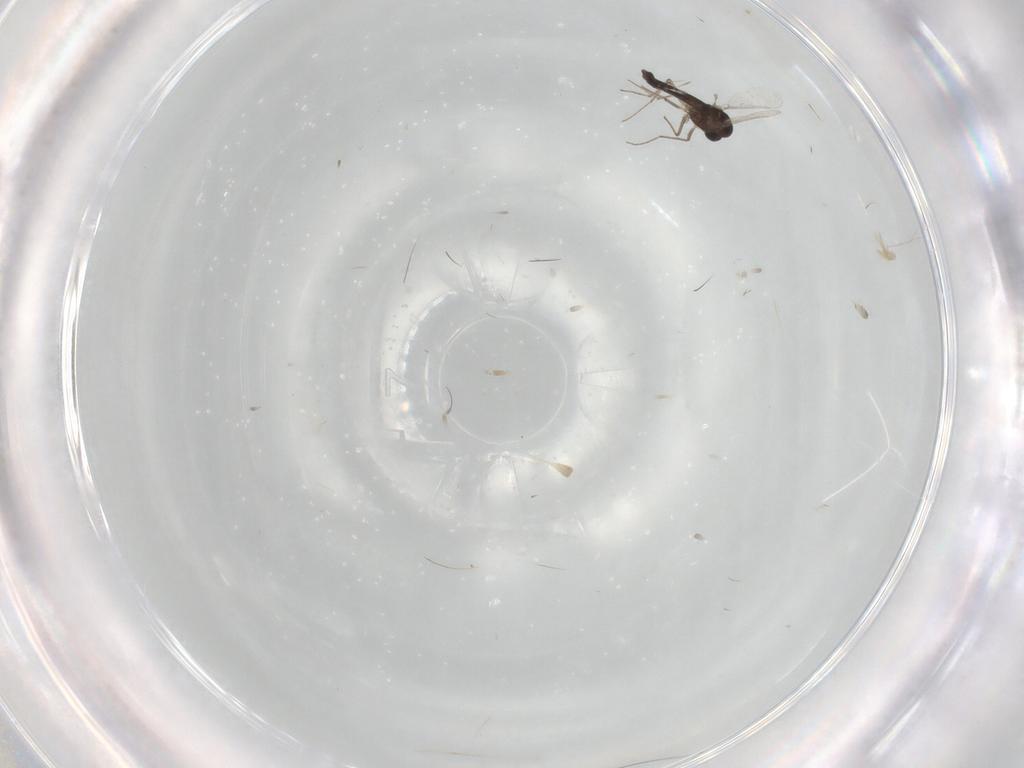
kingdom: Animalia
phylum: Arthropoda
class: Insecta
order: Diptera
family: Chironomidae
